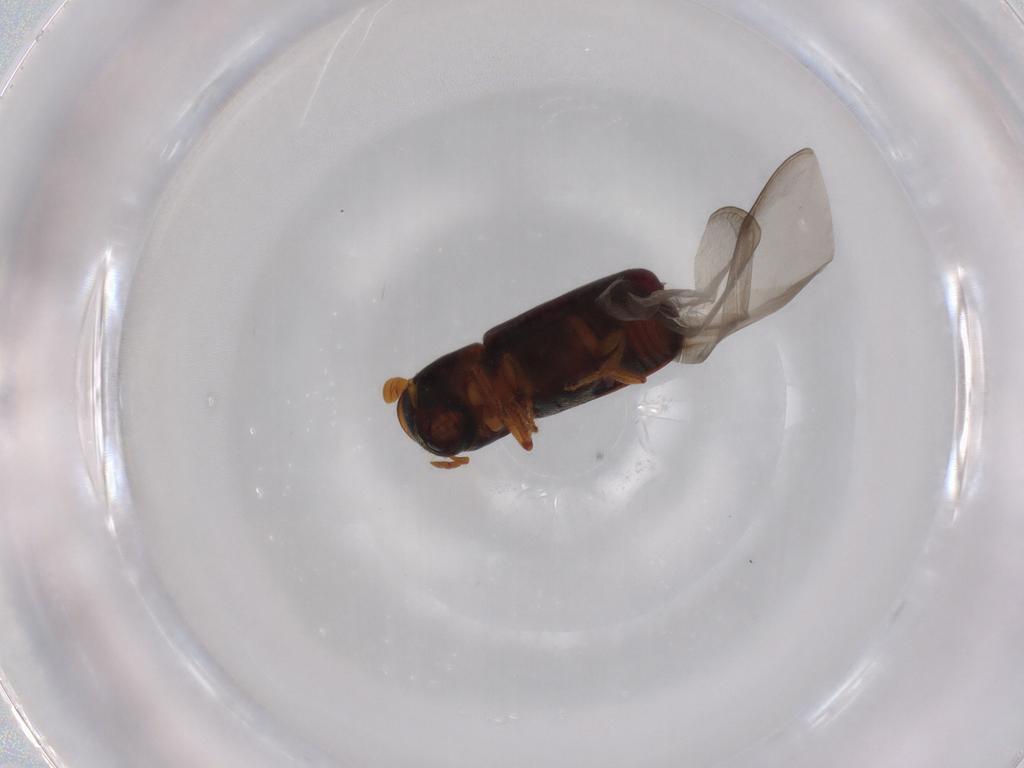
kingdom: Animalia
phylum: Arthropoda
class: Insecta
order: Coleoptera
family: Curculionidae
